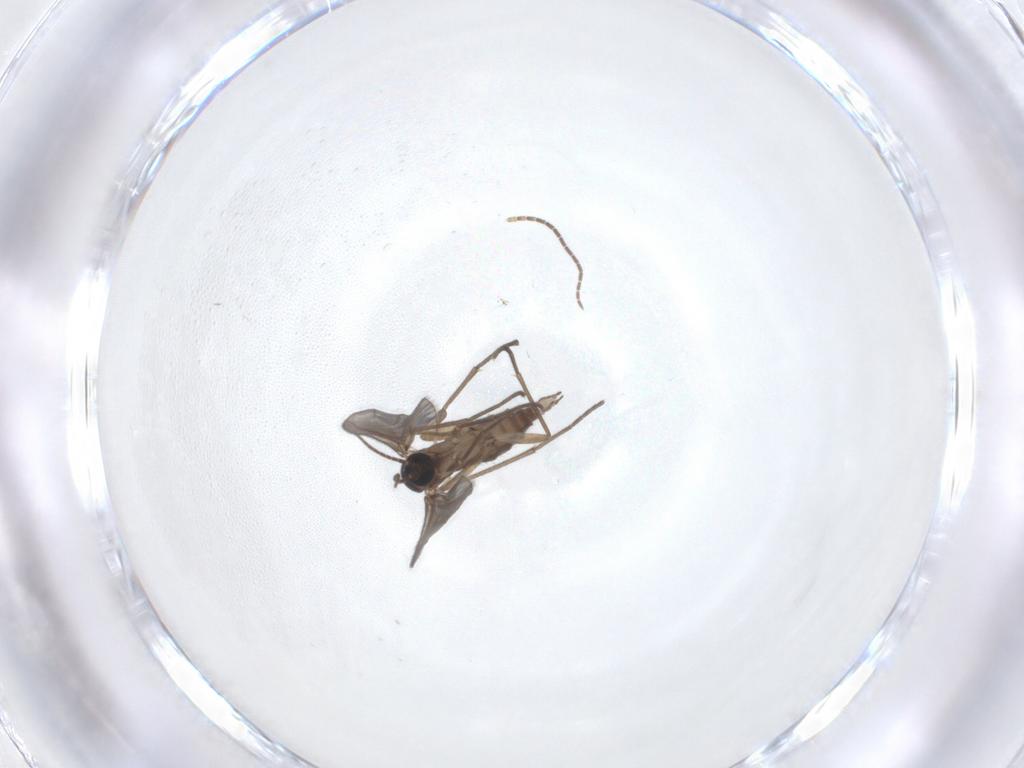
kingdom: Animalia
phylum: Arthropoda
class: Insecta
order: Diptera
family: Sciaridae
